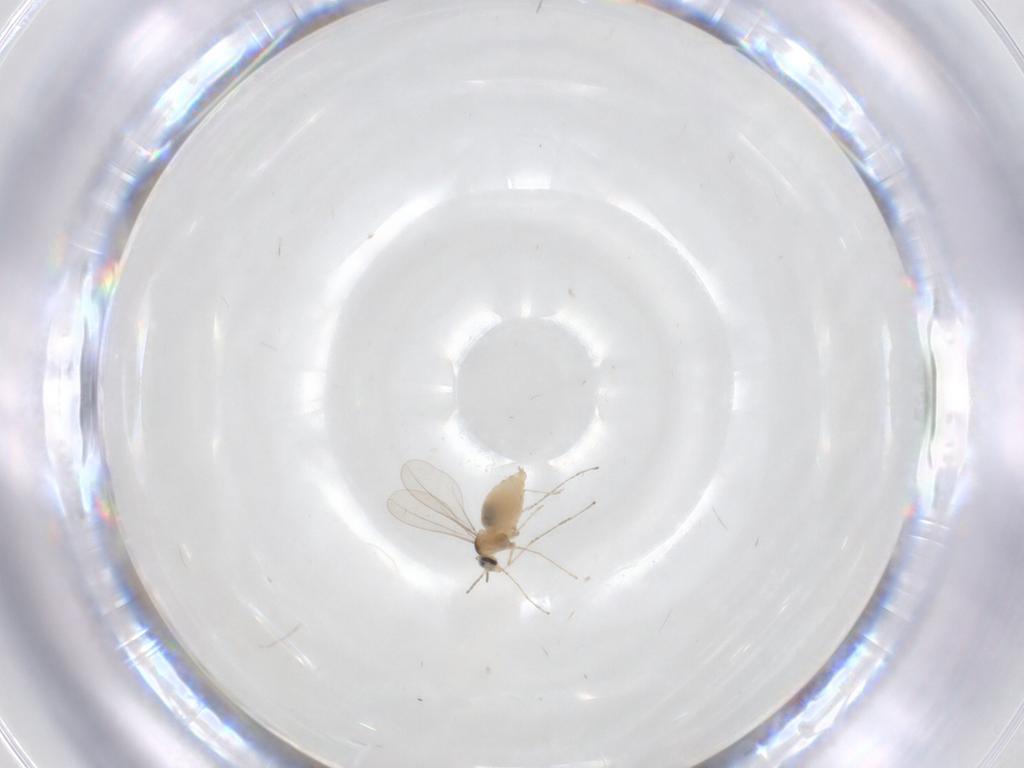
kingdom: Animalia
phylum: Arthropoda
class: Insecta
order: Diptera
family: Cecidomyiidae
